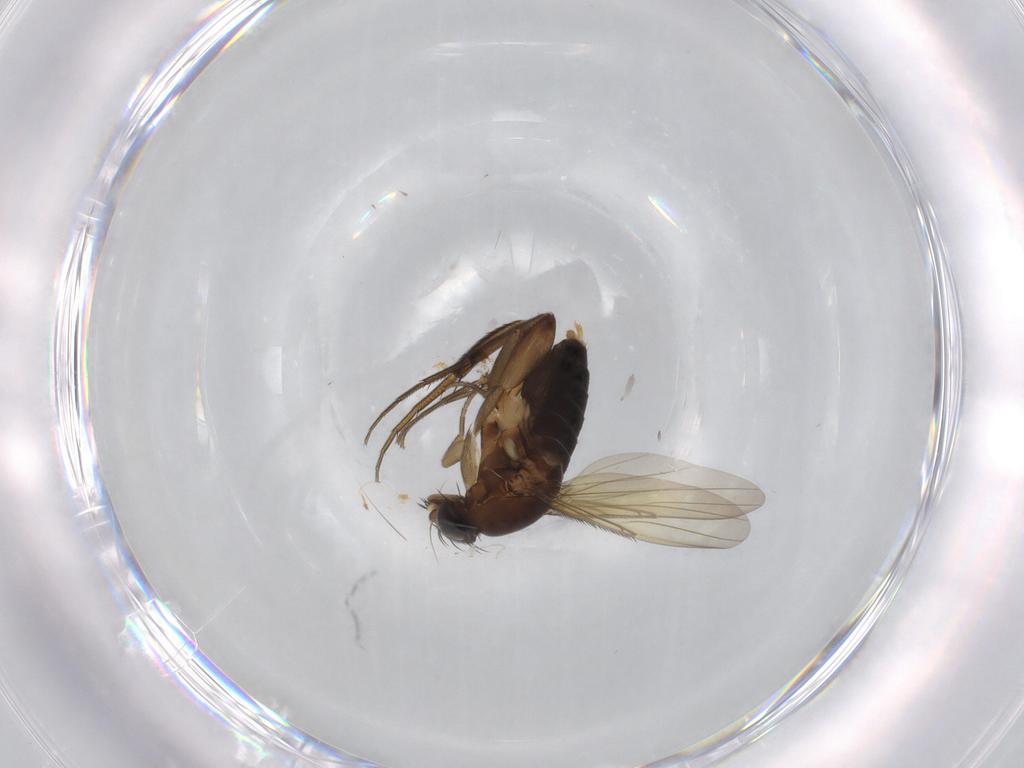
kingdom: Animalia
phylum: Arthropoda
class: Insecta
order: Diptera
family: Phoridae
